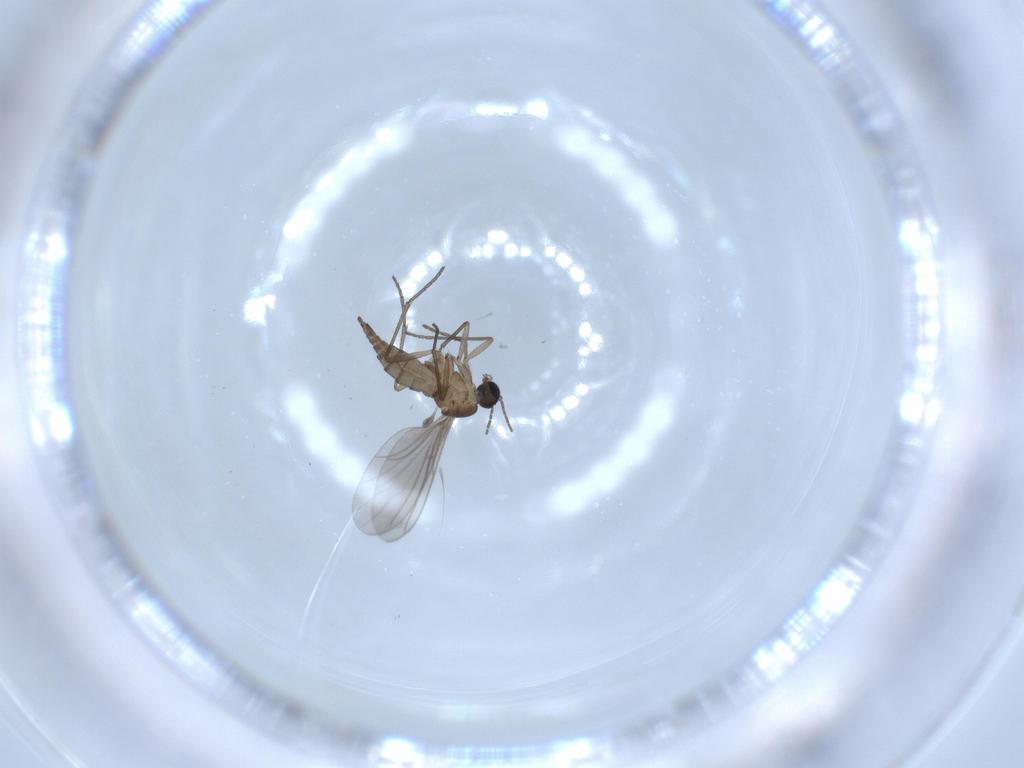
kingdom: Animalia
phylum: Arthropoda
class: Insecta
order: Diptera
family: Sciaridae
